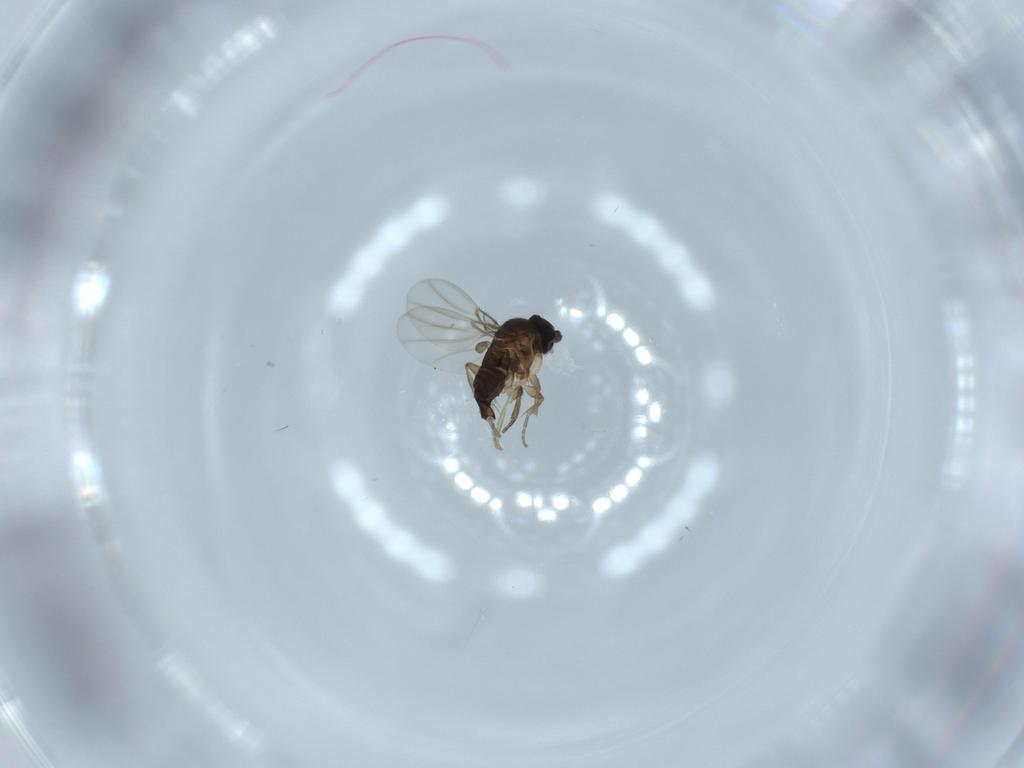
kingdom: Animalia
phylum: Arthropoda
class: Insecta
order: Diptera
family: Phoridae
